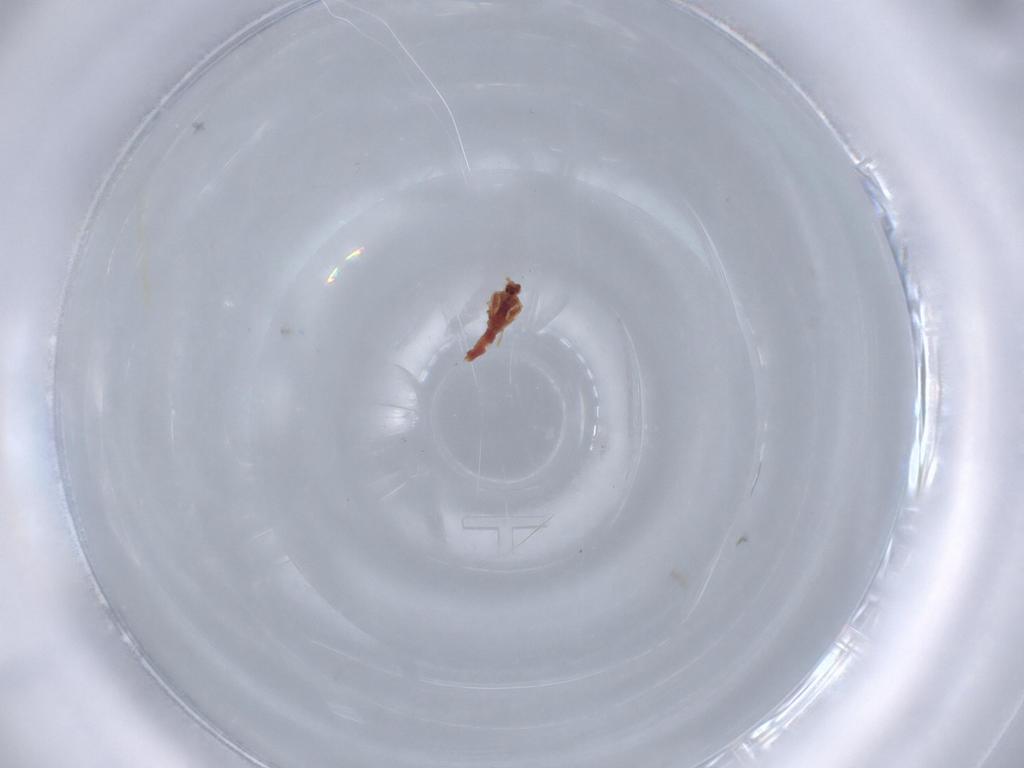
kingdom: Animalia
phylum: Arthropoda
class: Insecta
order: Diptera
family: Chironomidae
